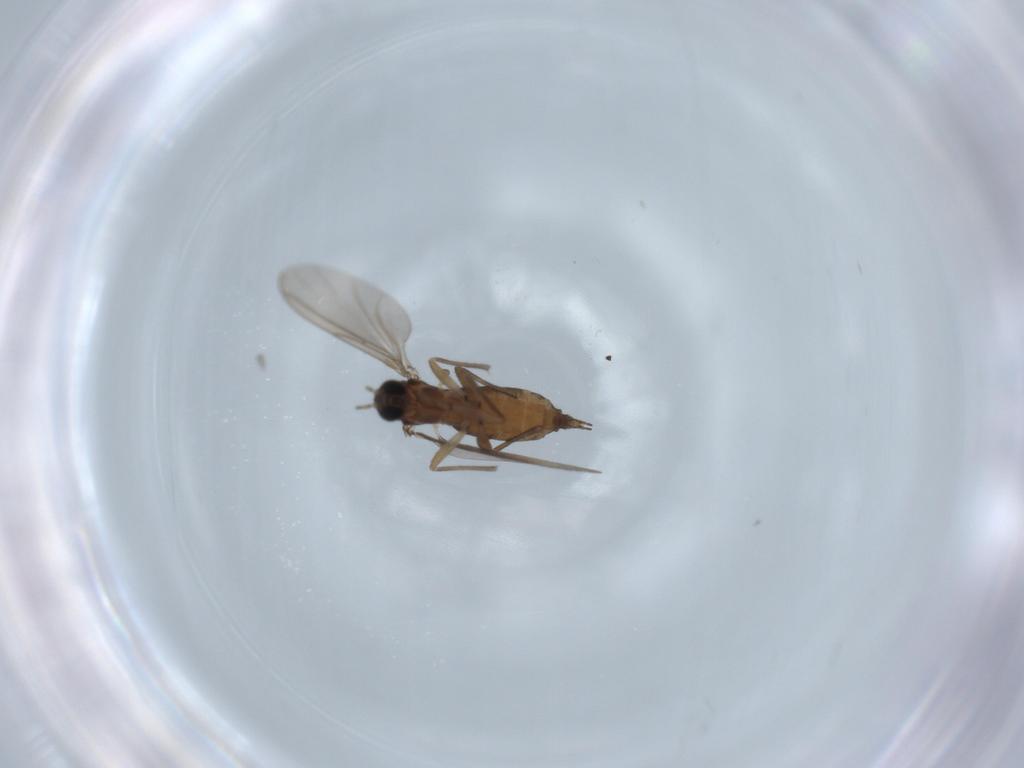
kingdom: Animalia
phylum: Arthropoda
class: Insecta
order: Diptera
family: Sciaridae
